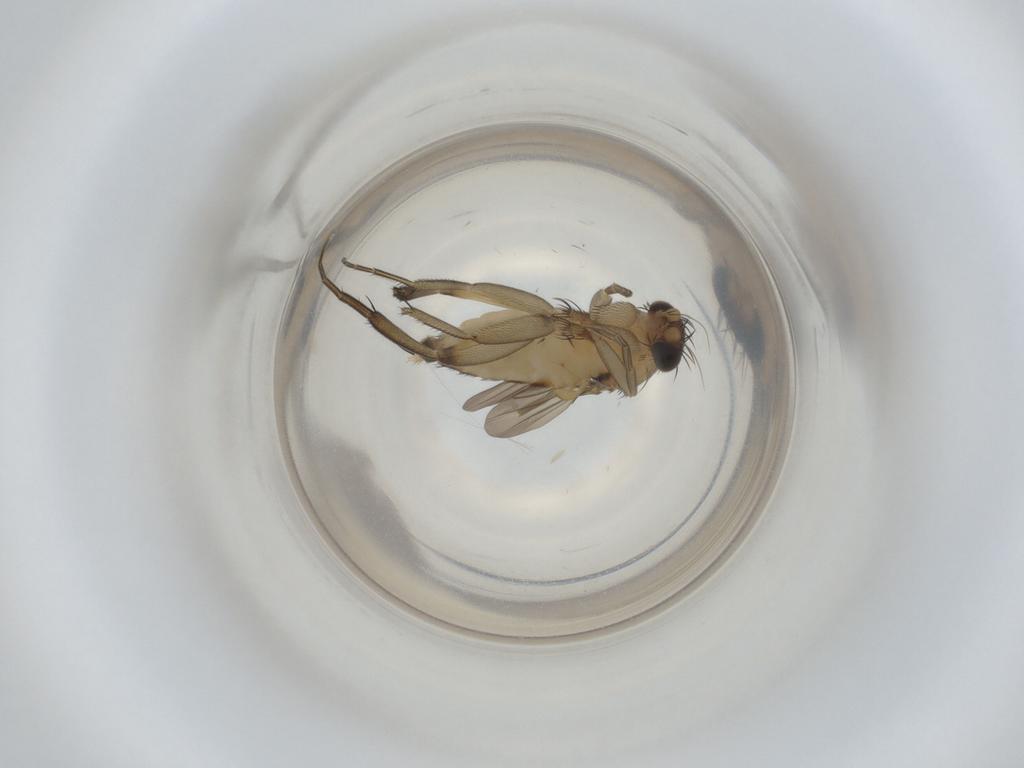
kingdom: Animalia
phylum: Arthropoda
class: Insecta
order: Diptera
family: Phoridae
